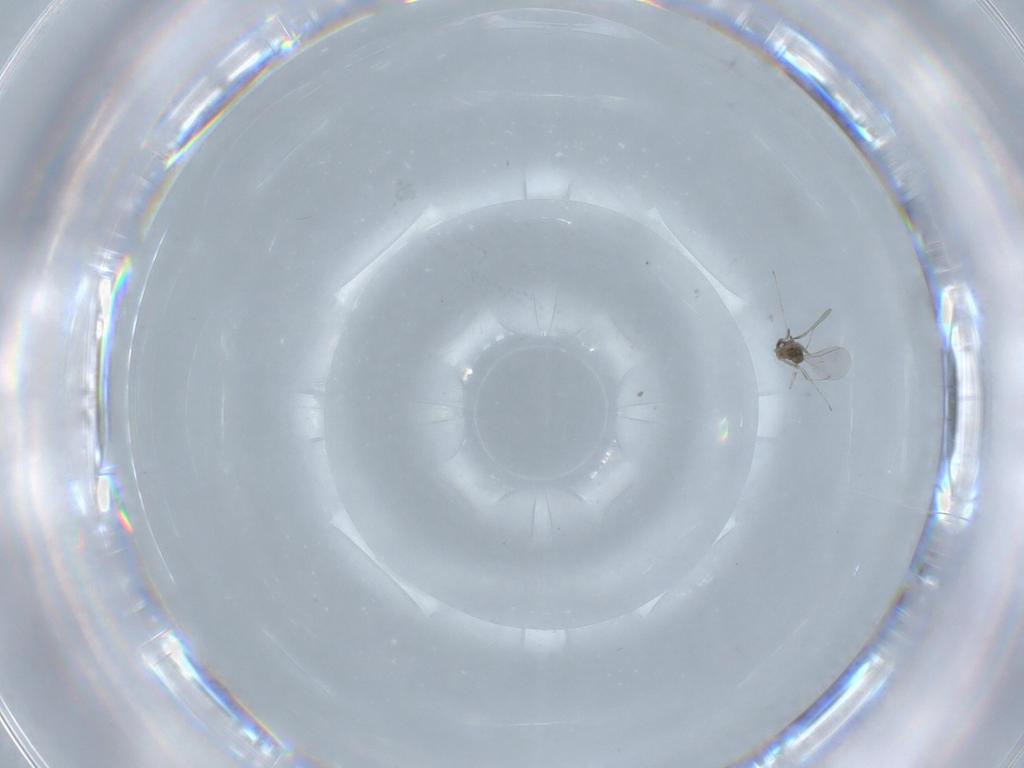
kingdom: Animalia
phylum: Arthropoda
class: Insecta
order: Diptera
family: Cecidomyiidae
